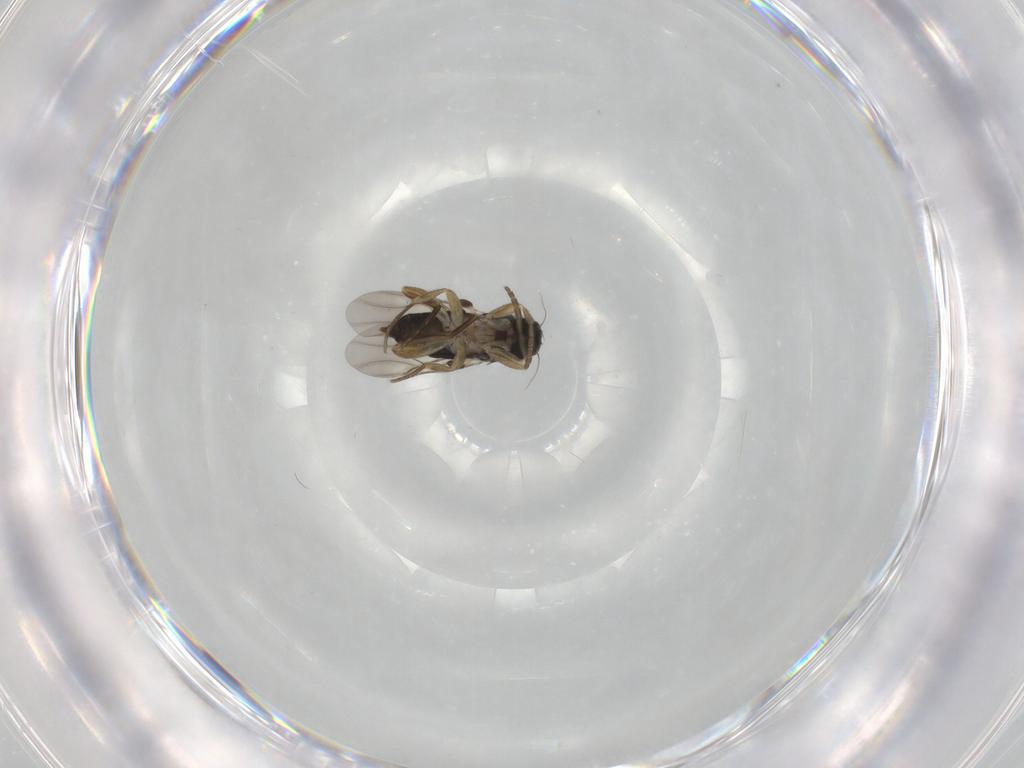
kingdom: Animalia
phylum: Arthropoda
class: Insecta
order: Diptera
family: Phoridae
